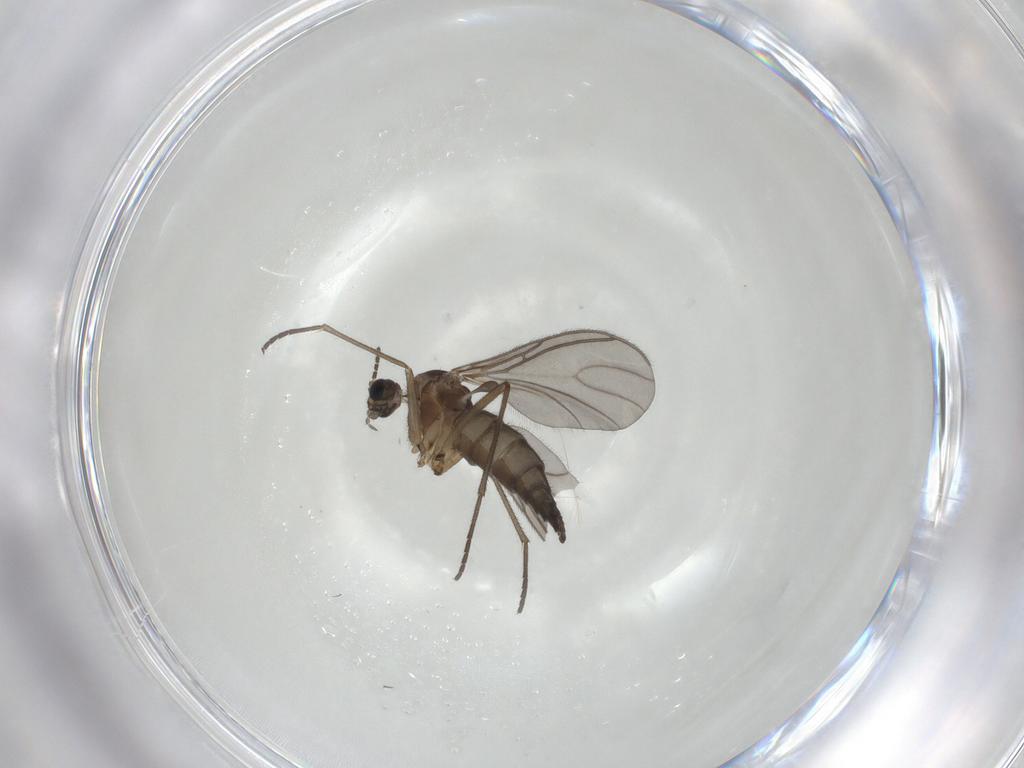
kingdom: Animalia
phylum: Arthropoda
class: Insecta
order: Diptera
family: Sciaridae
